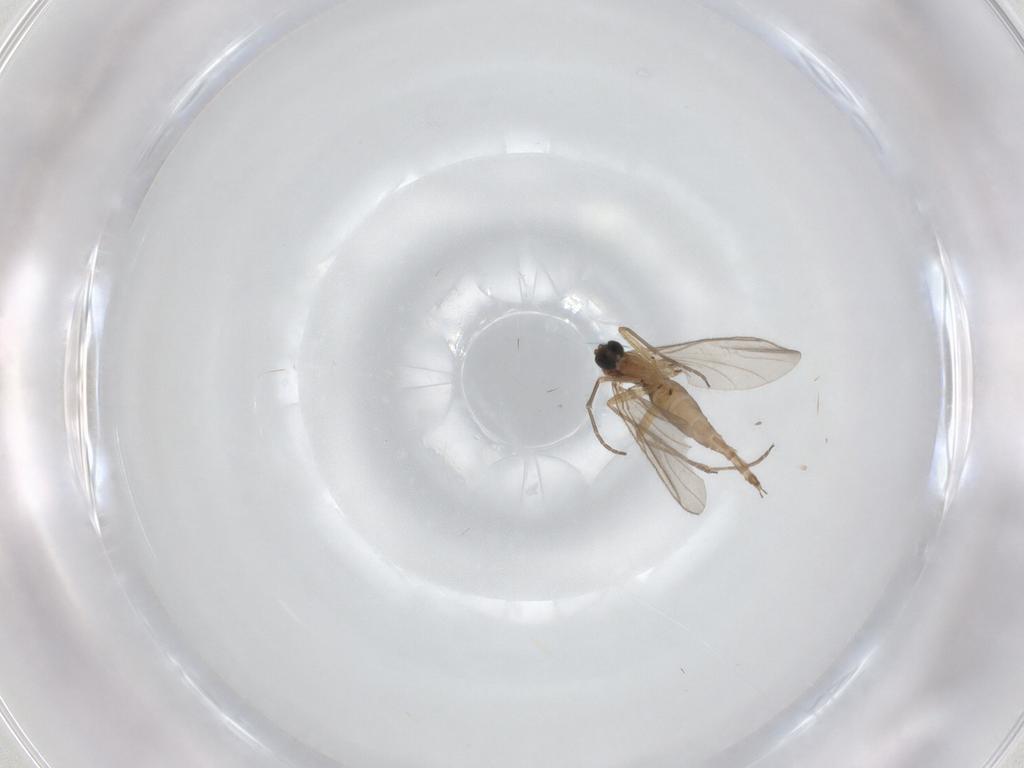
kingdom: Animalia
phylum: Arthropoda
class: Insecta
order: Diptera
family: Sciaridae
